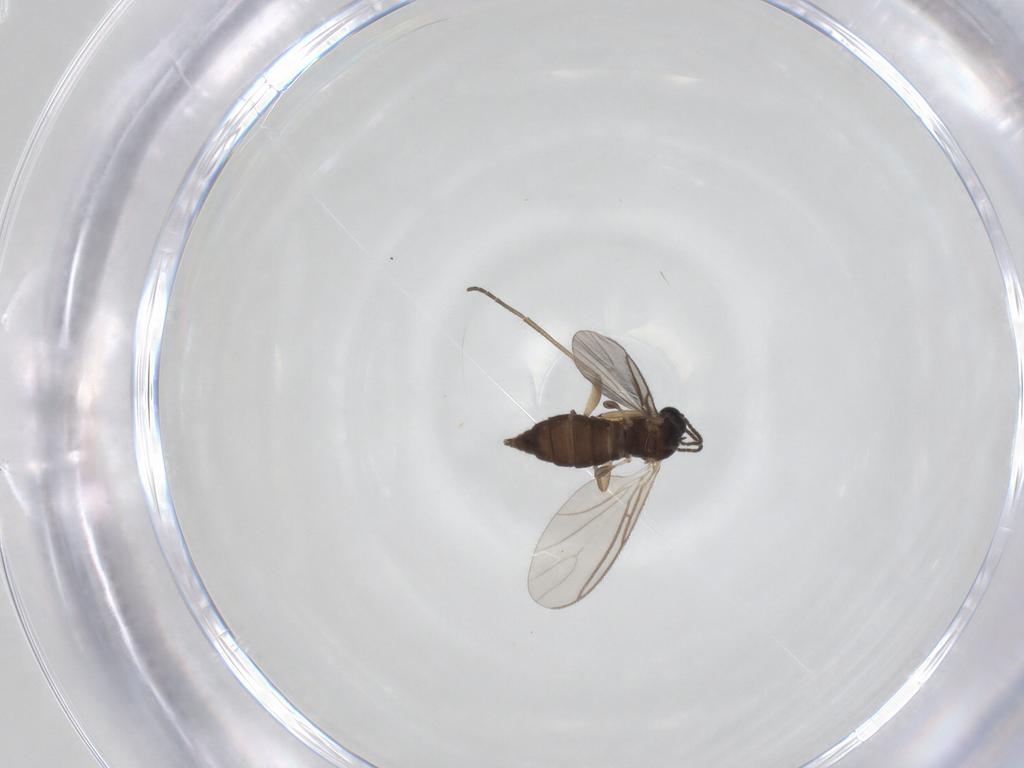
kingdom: Animalia
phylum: Arthropoda
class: Insecta
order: Diptera
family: Sciaridae
